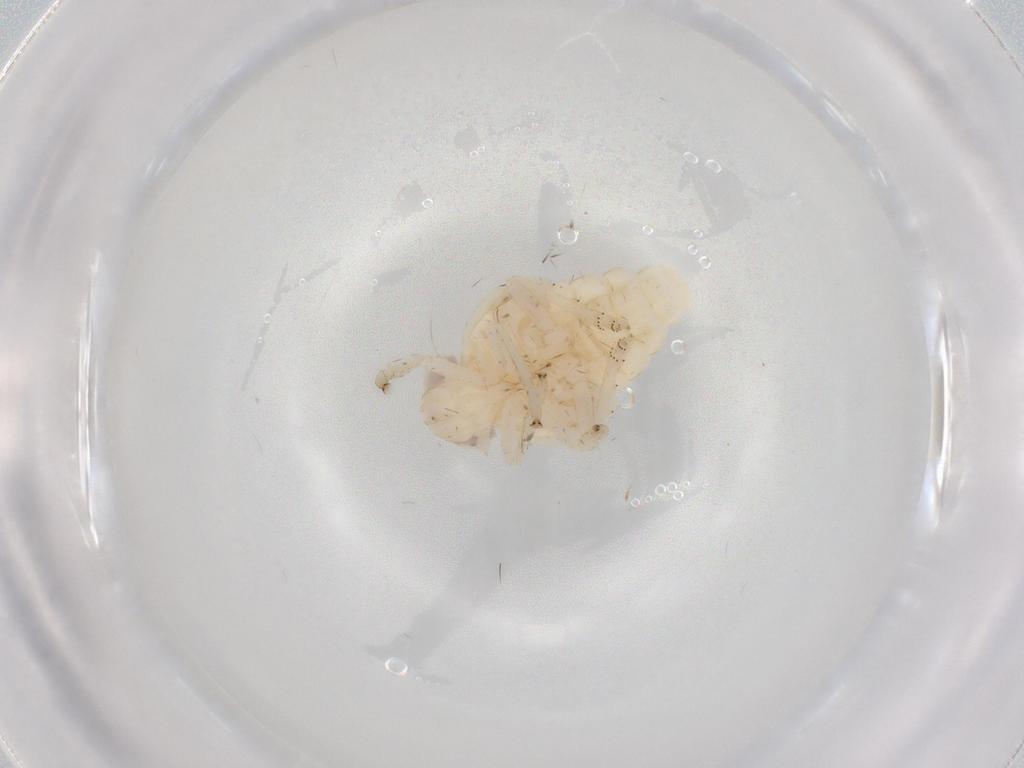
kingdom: Animalia
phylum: Arthropoda
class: Insecta
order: Hemiptera
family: Nogodinidae
